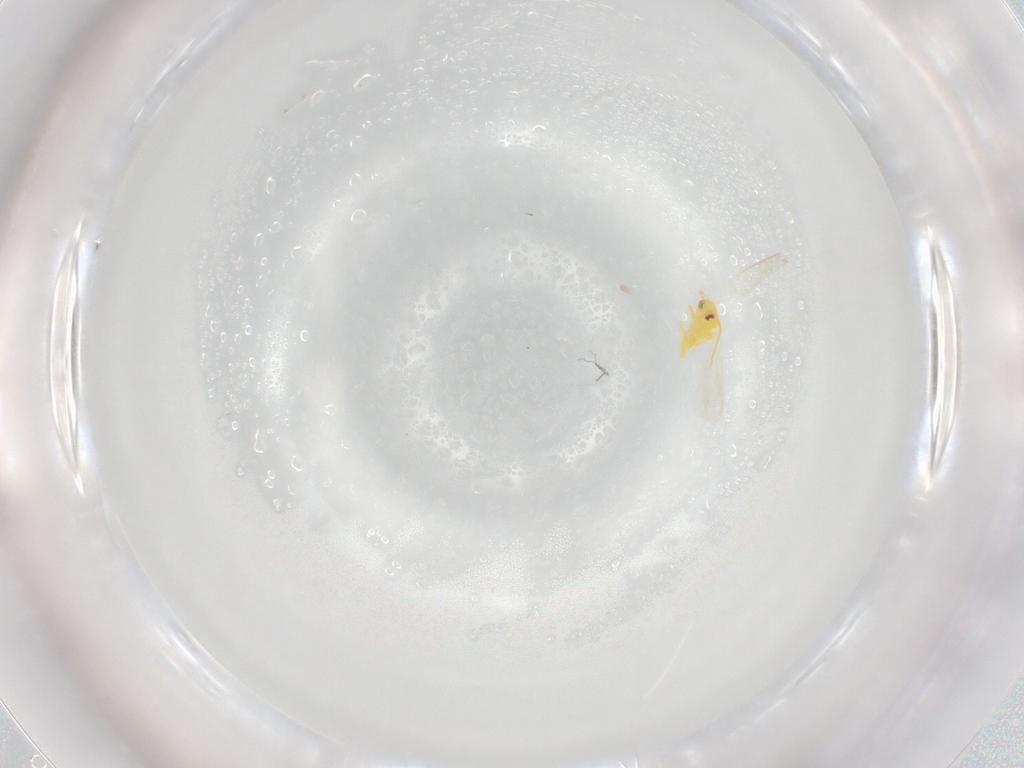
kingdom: Animalia
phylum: Arthropoda
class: Insecta
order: Hemiptera
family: Aleyrodidae
